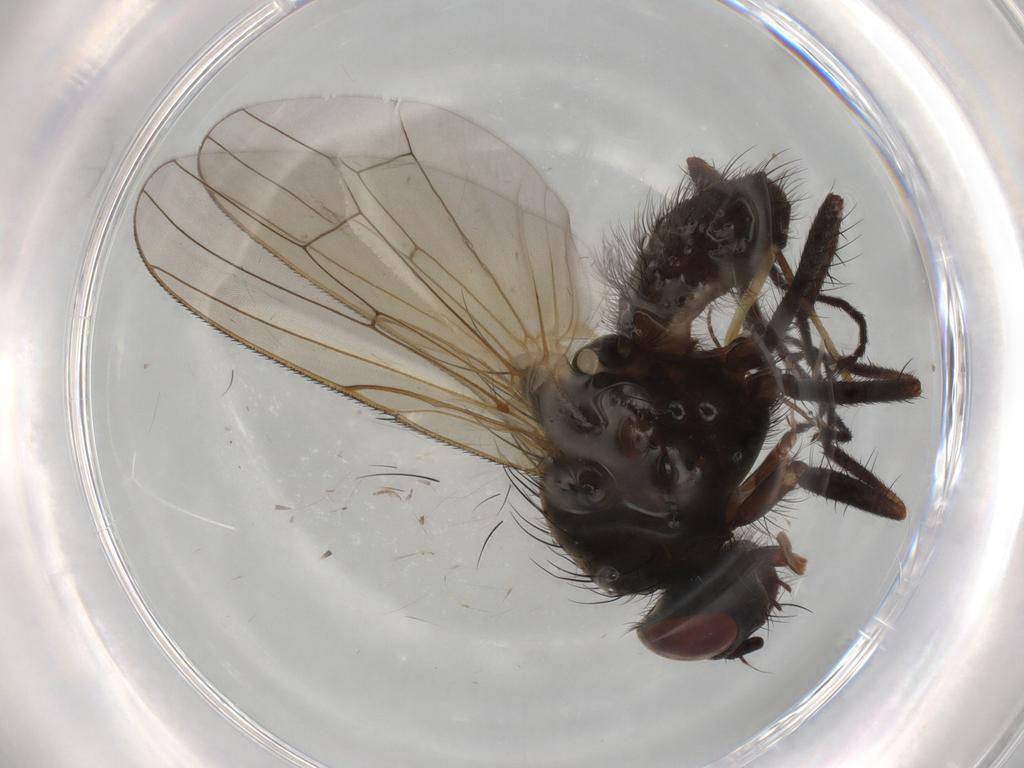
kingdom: Animalia
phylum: Arthropoda
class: Insecta
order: Diptera
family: Anthomyiidae
